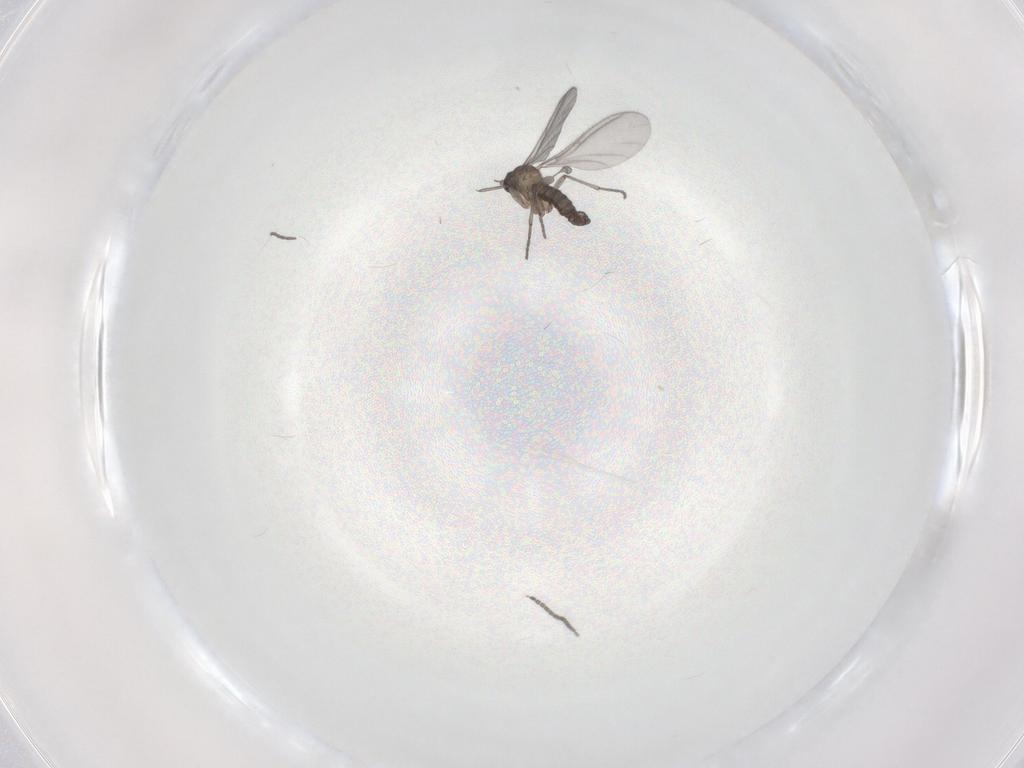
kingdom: Animalia
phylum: Arthropoda
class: Insecta
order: Diptera
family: Sciaridae
